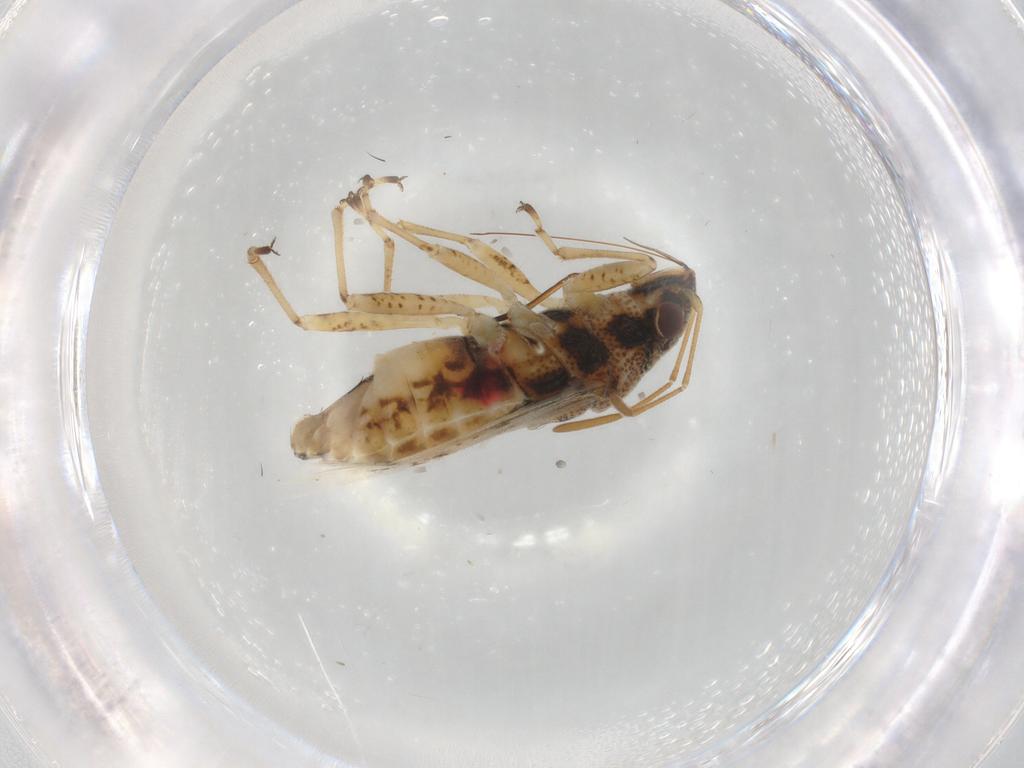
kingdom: Animalia
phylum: Arthropoda
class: Insecta
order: Hemiptera
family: Lygaeidae
